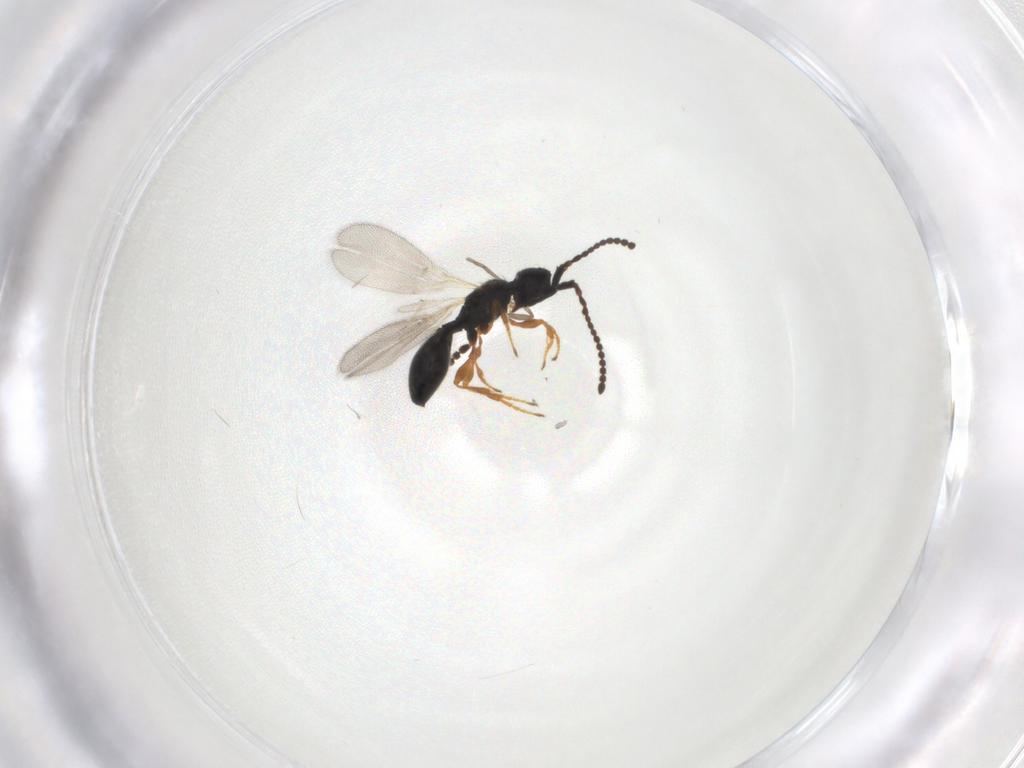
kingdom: Animalia
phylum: Arthropoda
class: Insecta
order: Hymenoptera
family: Diapriidae
